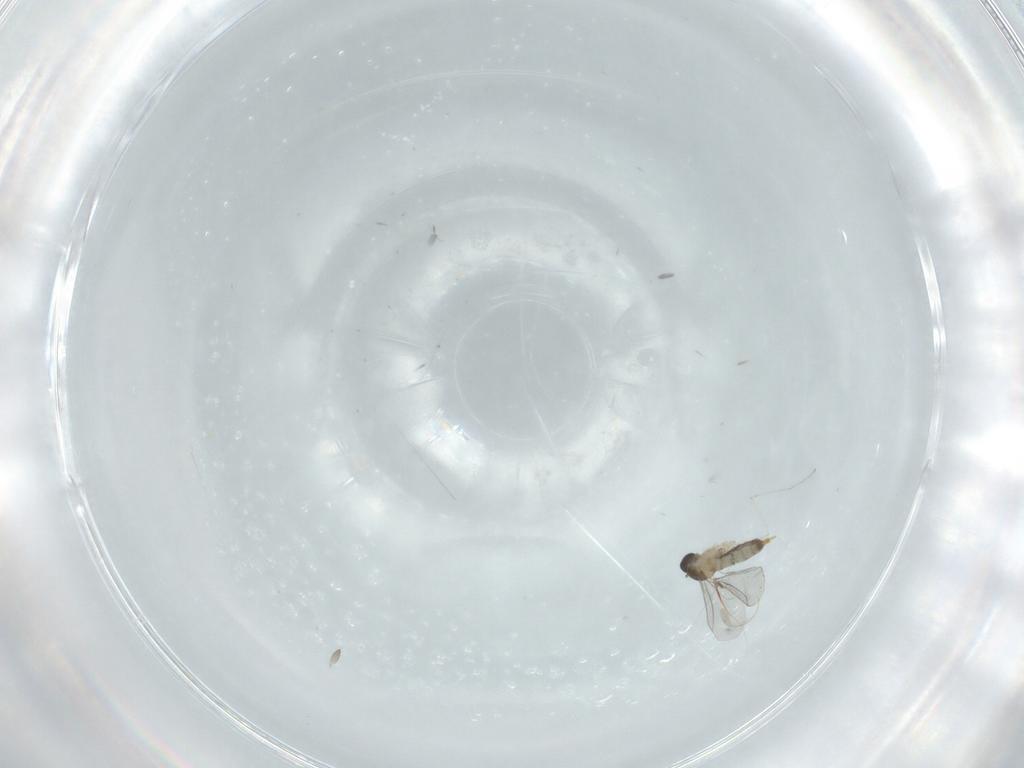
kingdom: Animalia
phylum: Arthropoda
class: Insecta
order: Diptera
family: Cecidomyiidae
